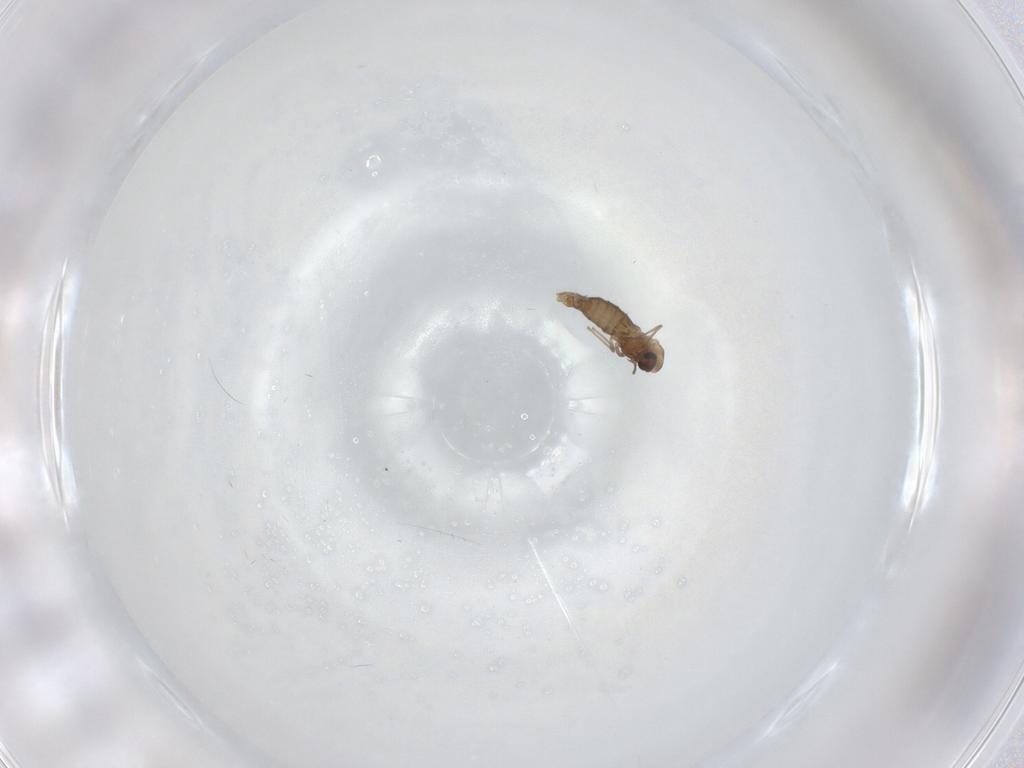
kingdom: Animalia
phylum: Arthropoda
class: Insecta
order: Diptera
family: Chironomidae
